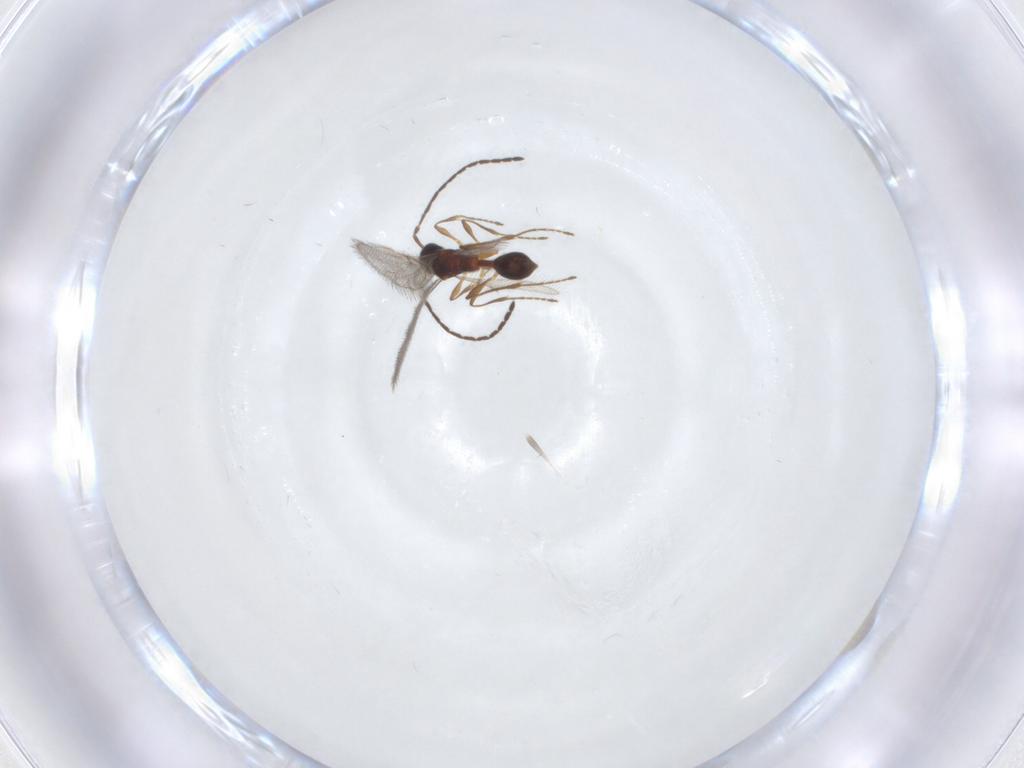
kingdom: Animalia
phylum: Arthropoda
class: Insecta
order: Hymenoptera
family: Diapriidae
